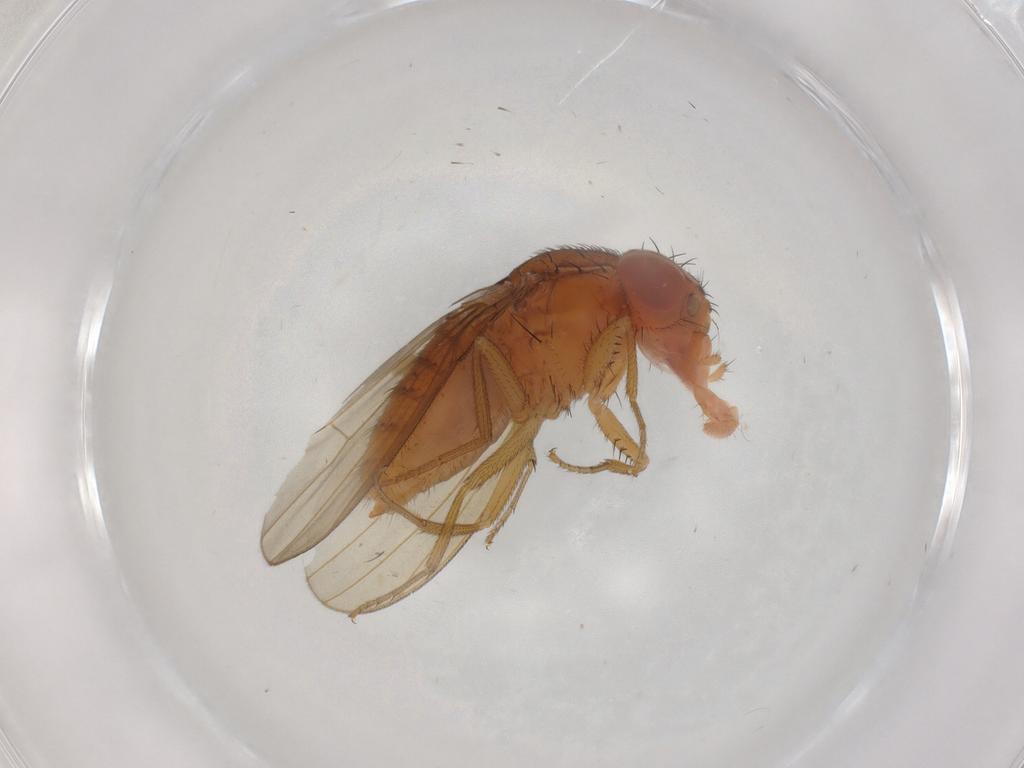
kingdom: Animalia
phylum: Arthropoda
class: Insecta
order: Diptera
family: Drosophilidae
